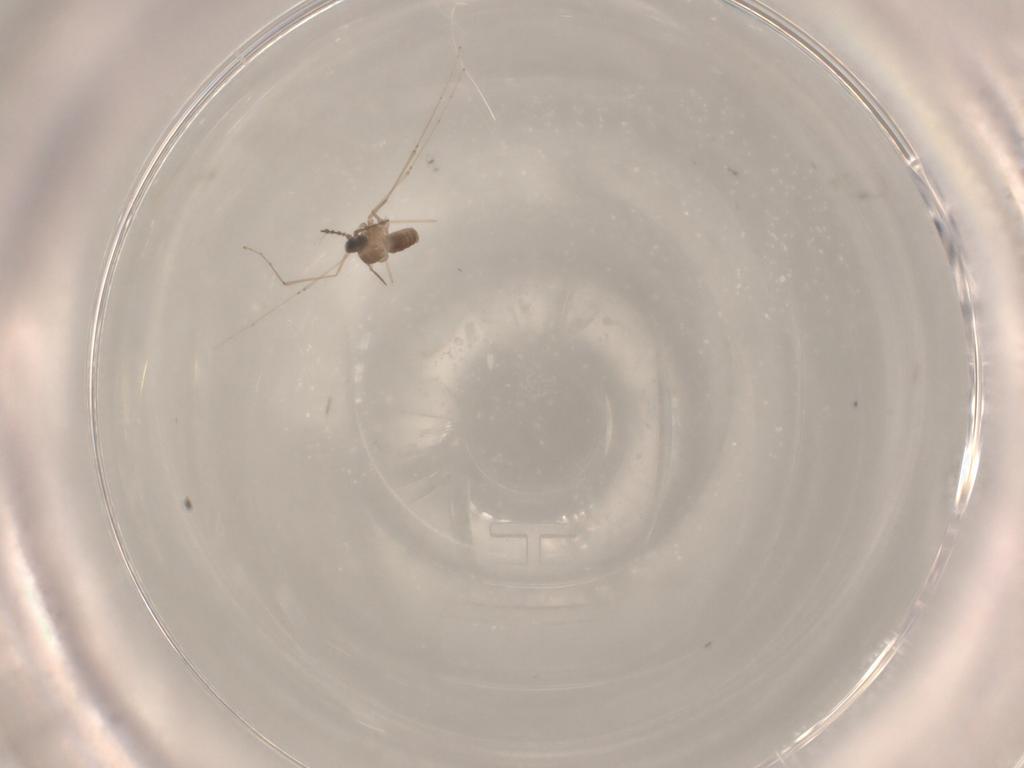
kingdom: Animalia
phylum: Arthropoda
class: Insecta
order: Diptera
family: Cecidomyiidae
